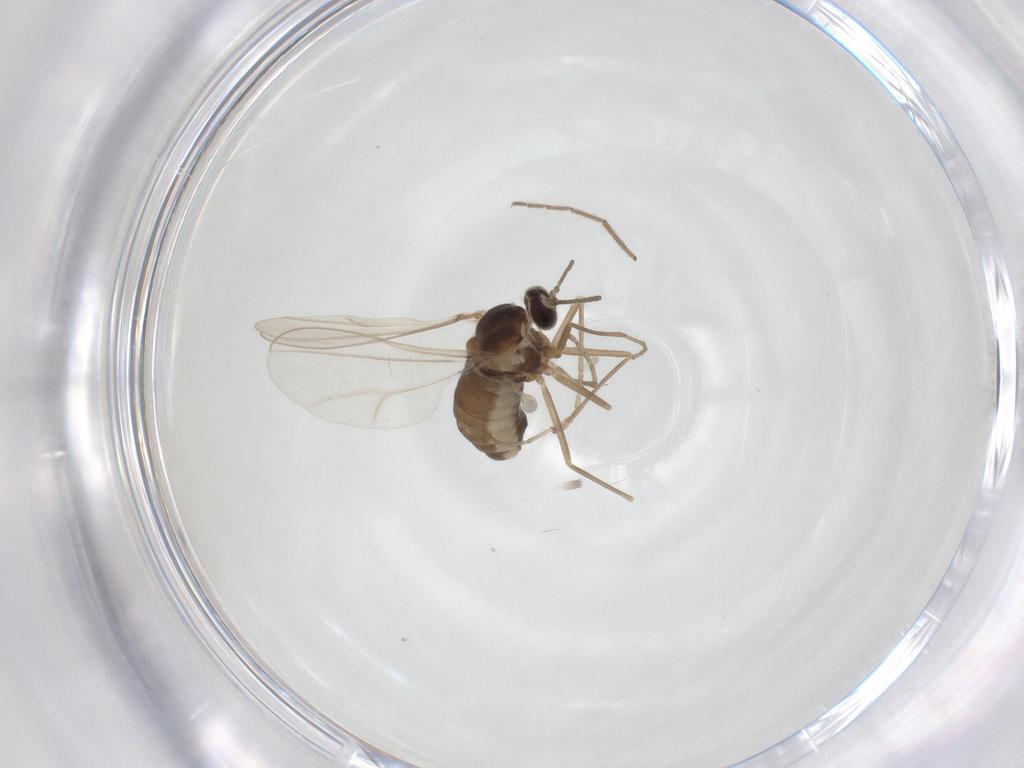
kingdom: Animalia
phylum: Arthropoda
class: Insecta
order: Diptera
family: Cecidomyiidae
